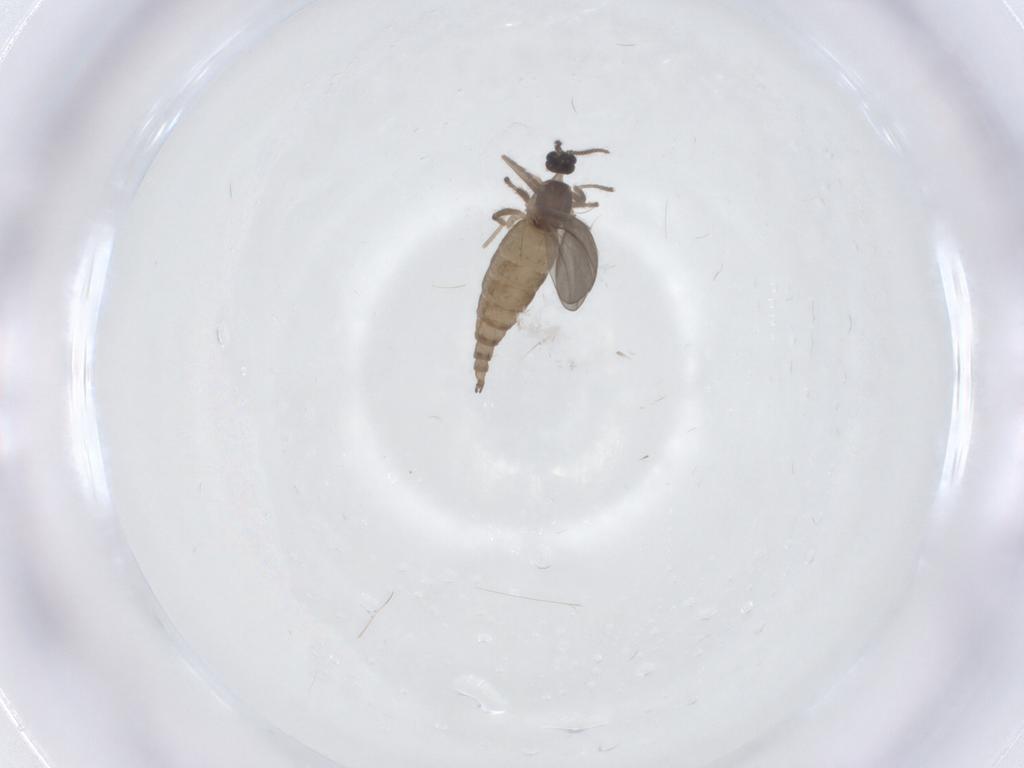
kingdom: Animalia
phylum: Arthropoda
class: Insecta
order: Diptera
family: Cecidomyiidae
